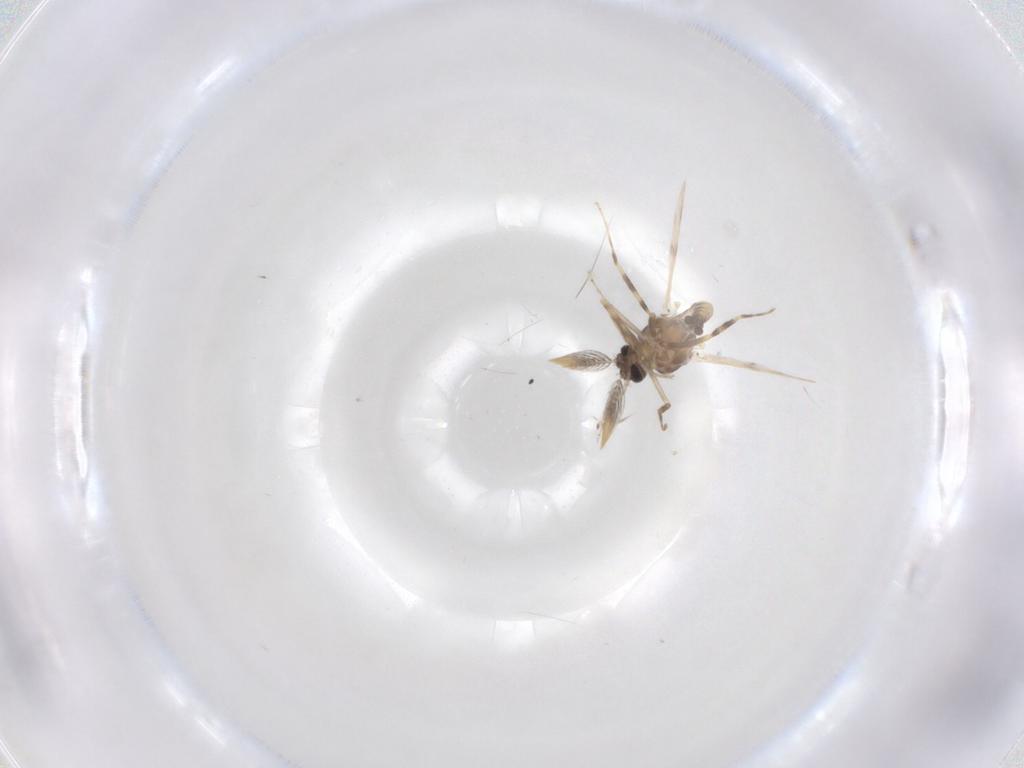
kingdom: Animalia
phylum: Arthropoda
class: Insecta
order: Diptera
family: Ceratopogonidae
